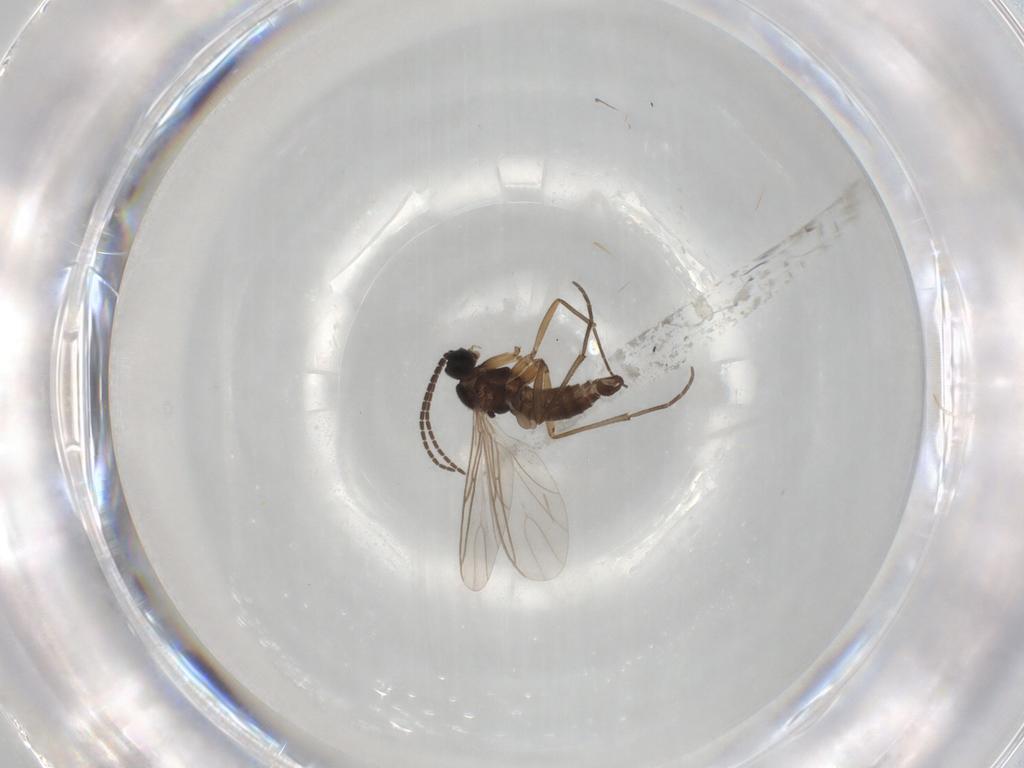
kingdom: Animalia
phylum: Arthropoda
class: Insecta
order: Diptera
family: Sciaridae
